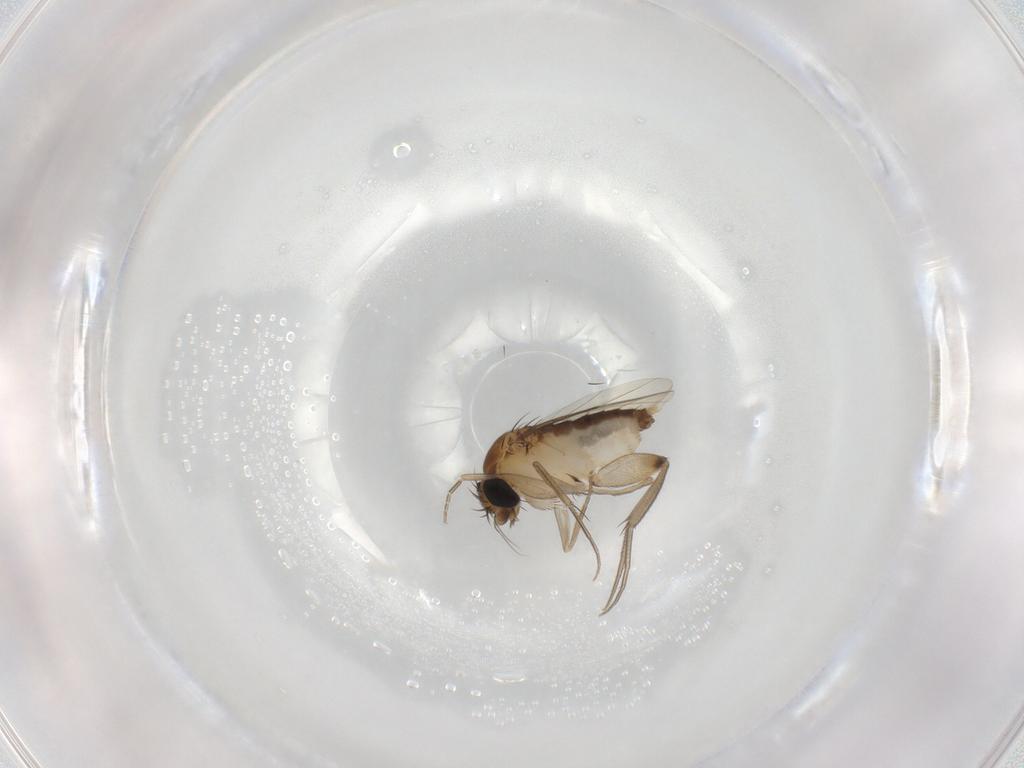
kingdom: Animalia
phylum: Arthropoda
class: Insecta
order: Diptera
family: Phoridae
